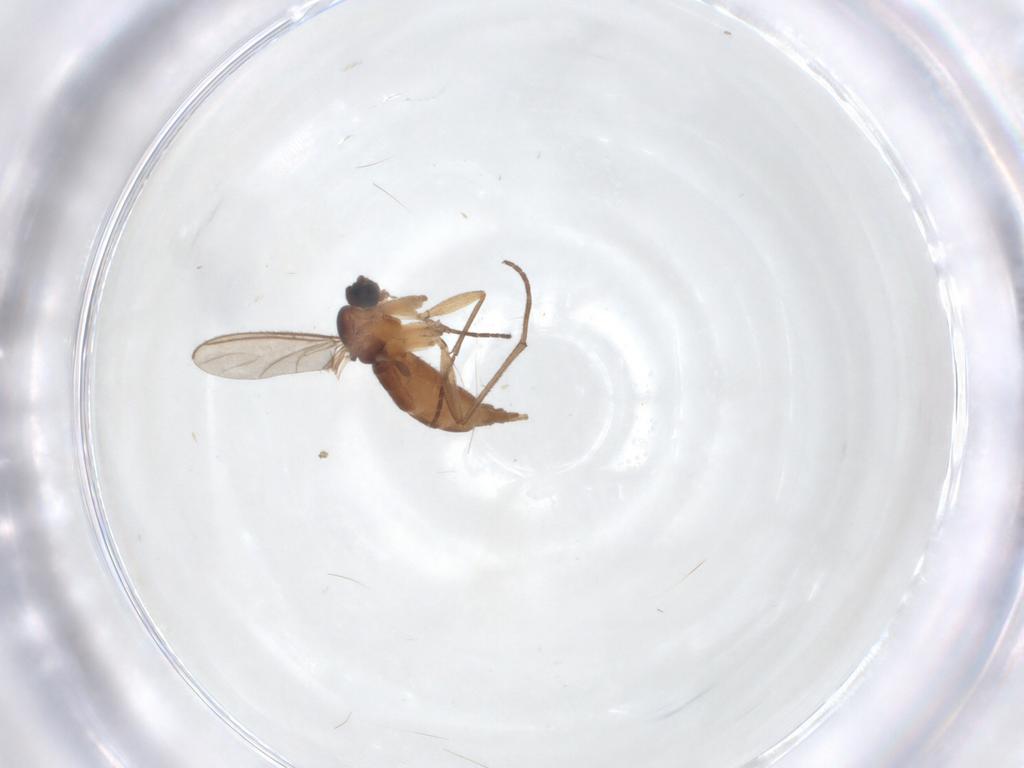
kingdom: Animalia
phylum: Arthropoda
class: Insecta
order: Diptera
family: Sciaridae
